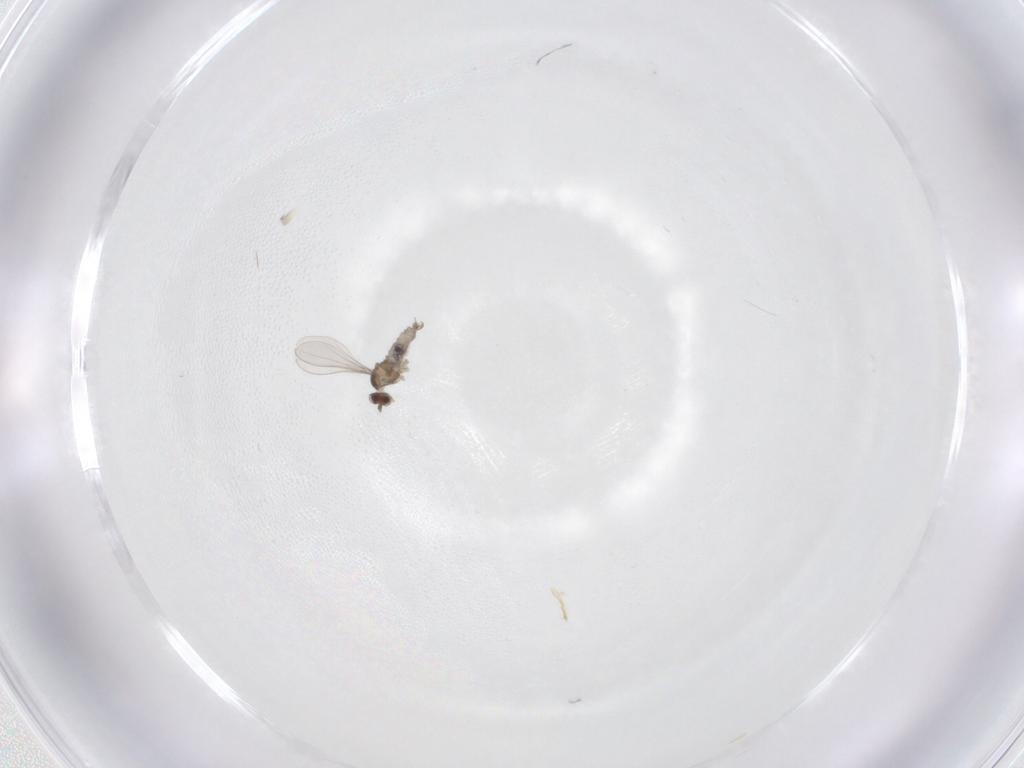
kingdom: Animalia
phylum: Arthropoda
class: Insecta
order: Diptera
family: Cecidomyiidae
